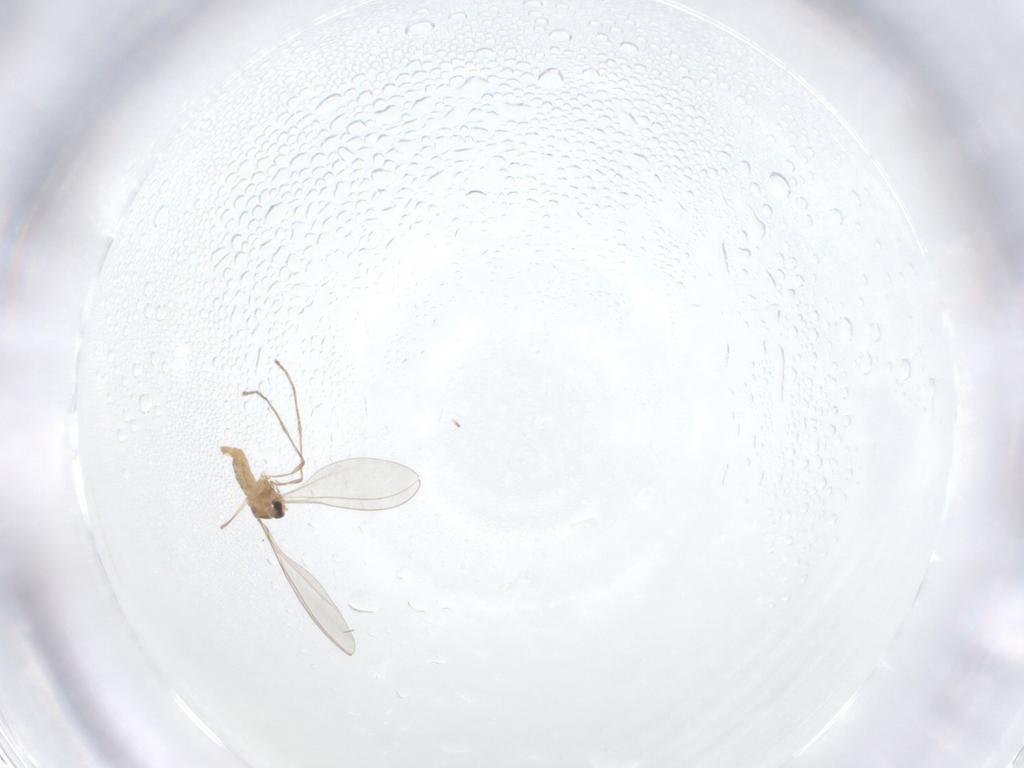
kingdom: Animalia
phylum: Arthropoda
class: Insecta
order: Diptera
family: Cecidomyiidae
